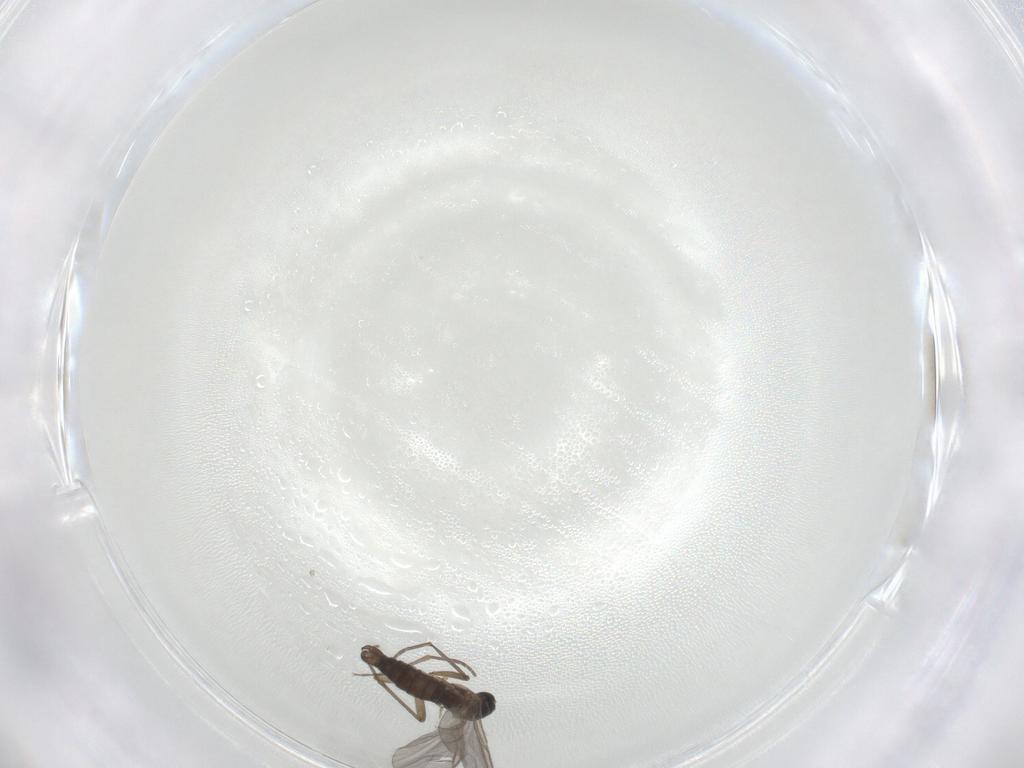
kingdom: Animalia
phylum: Arthropoda
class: Insecta
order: Diptera
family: Sciaridae
